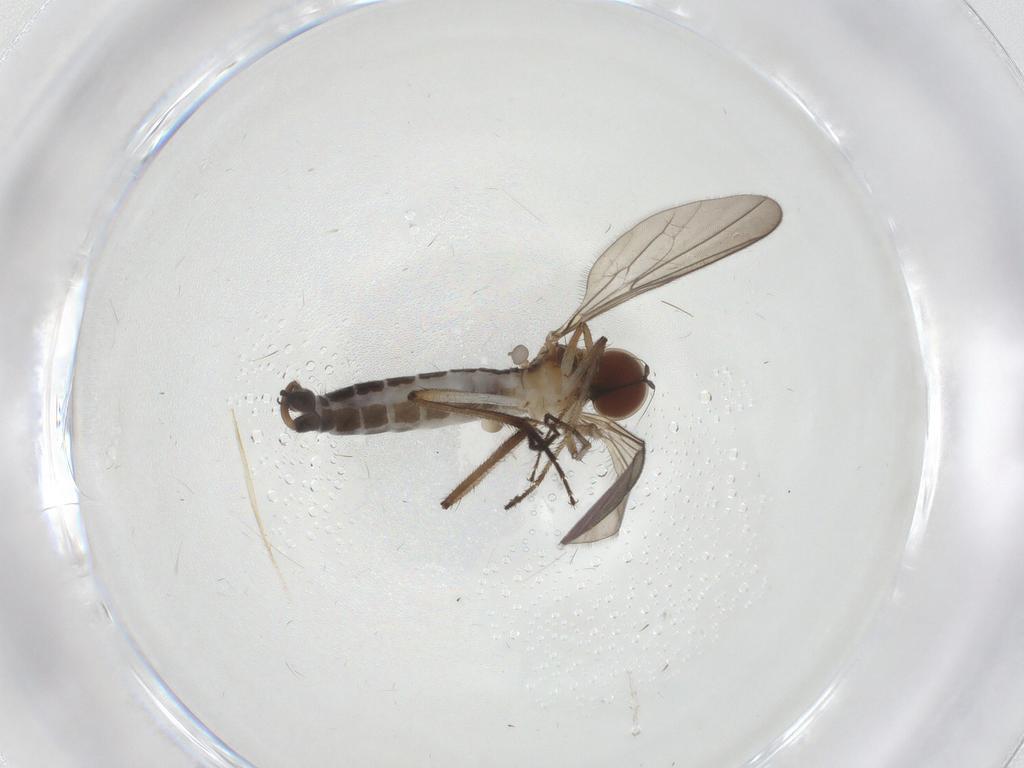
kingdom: Animalia
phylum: Arthropoda
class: Insecta
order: Diptera
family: Hybotidae
